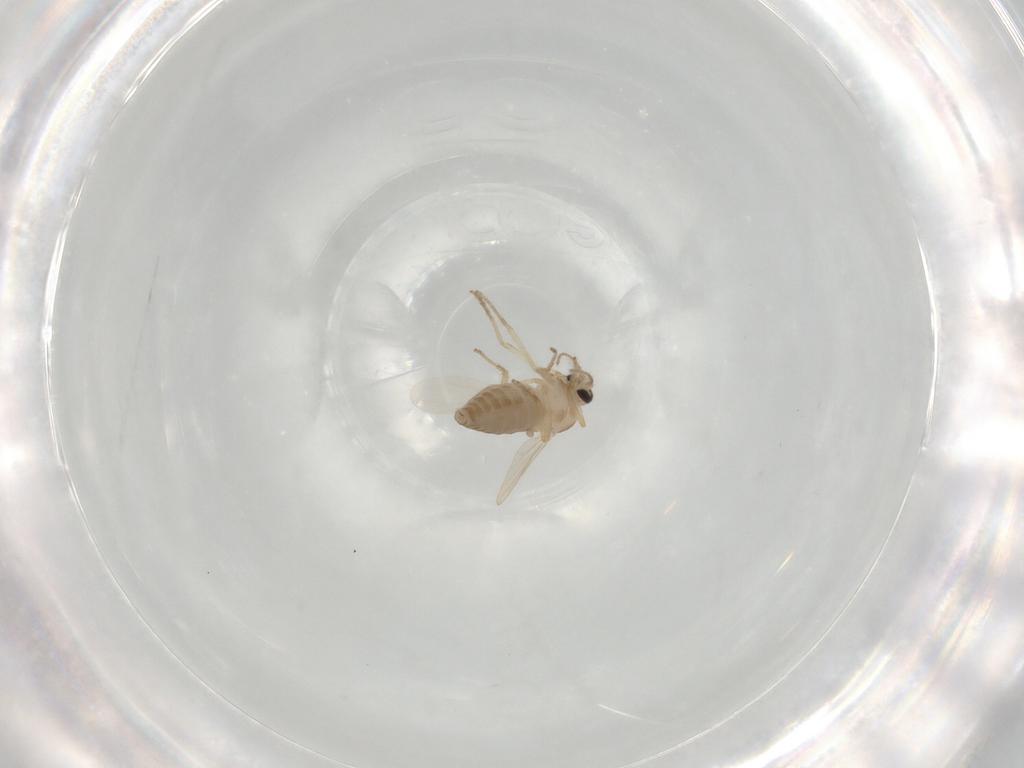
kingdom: Animalia
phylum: Arthropoda
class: Insecta
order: Diptera
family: Ceratopogonidae
